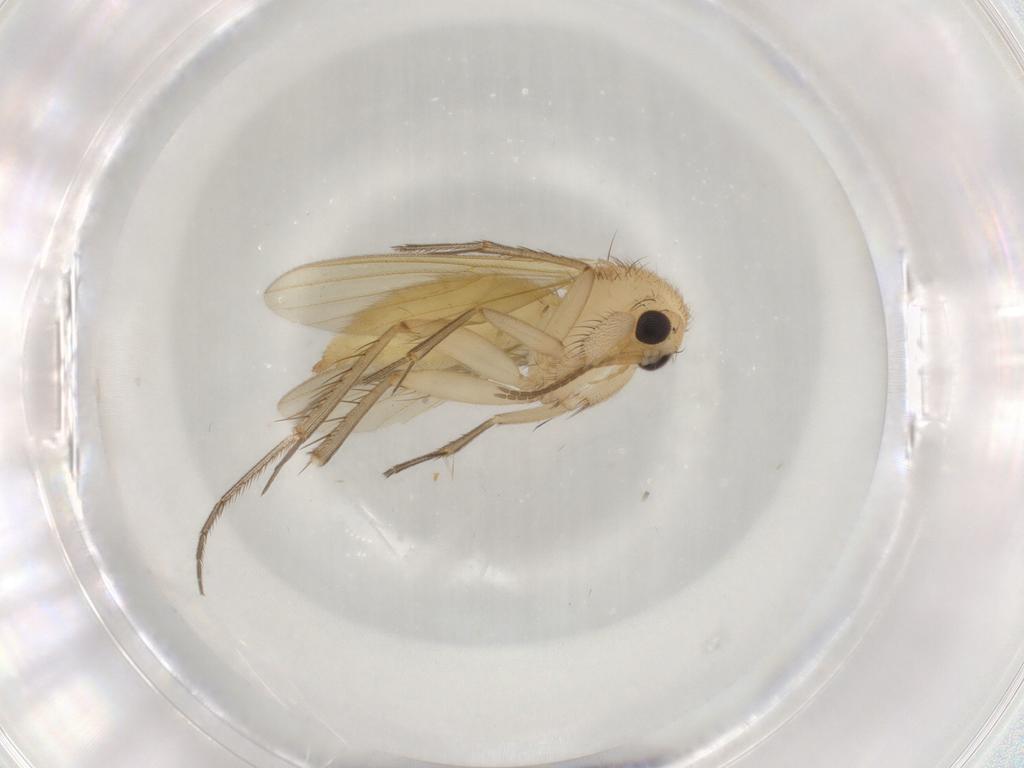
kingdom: Animalia
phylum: Arthropoda
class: Insecta
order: Diptera
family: Chironomidae
